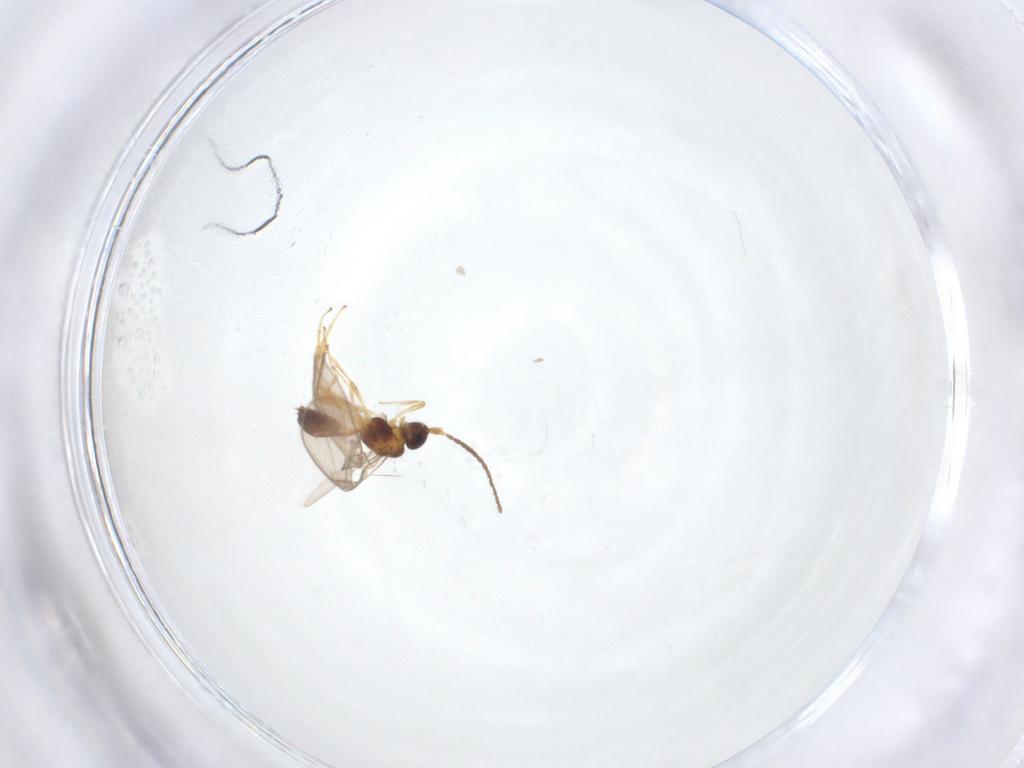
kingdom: Animalia
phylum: Arthropoda
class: Insecta
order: Hymenoptera
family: Braconidae
